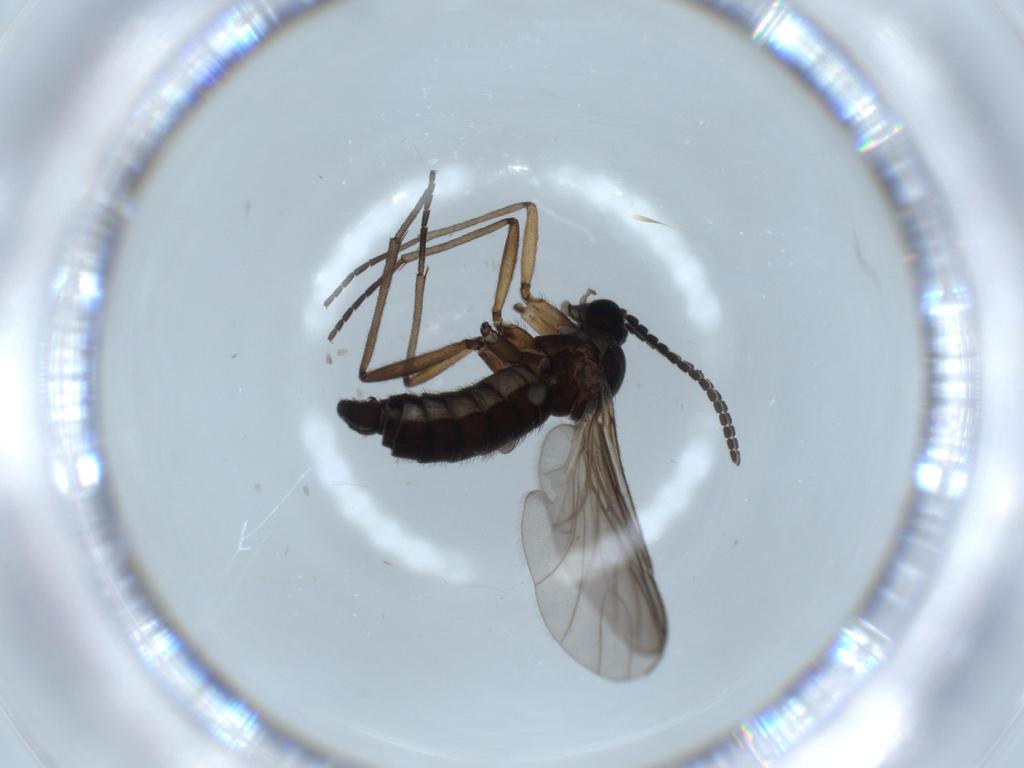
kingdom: Animalia
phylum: Arthropoda
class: Insecta
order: Diptera
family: Sciaridae
